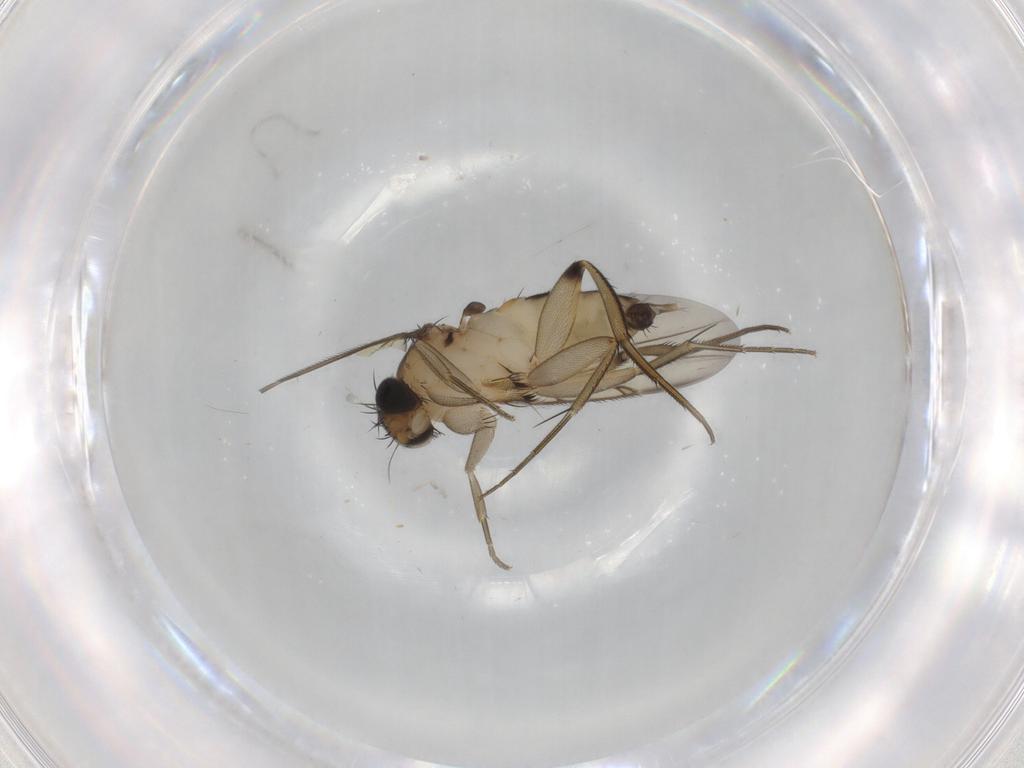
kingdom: Animalia
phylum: Arthropoda
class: Insecta
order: Diptera
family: Phoridae
